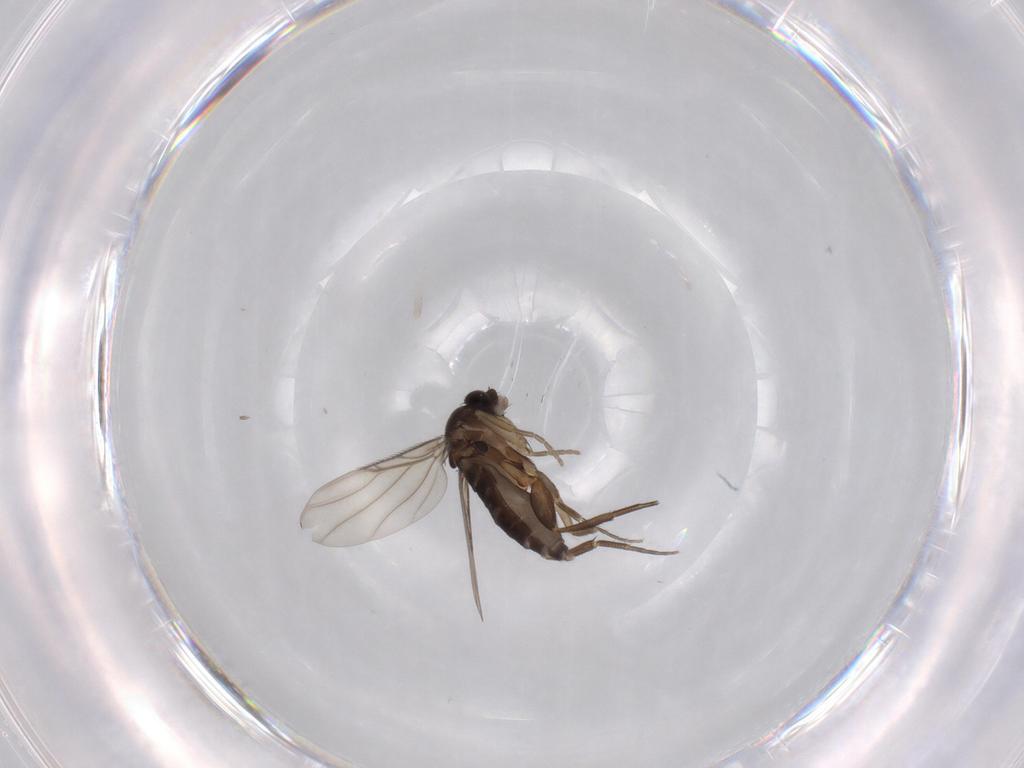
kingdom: Animalia
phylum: Arthropoda
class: Insecta
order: Diptera
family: Phoridae
